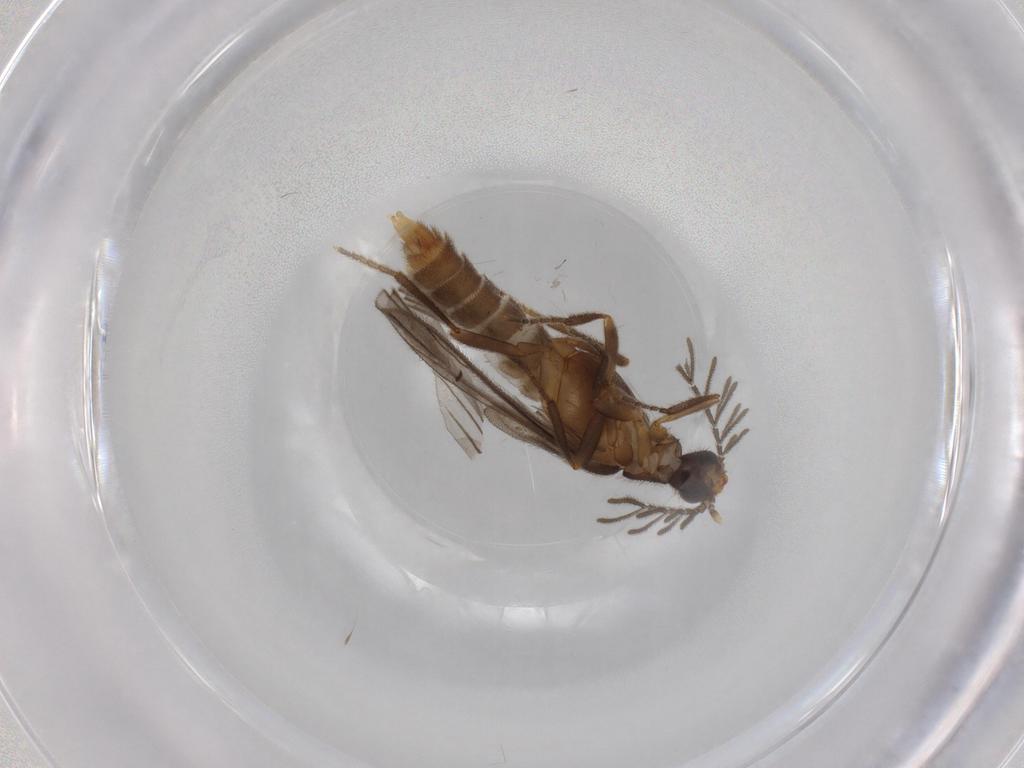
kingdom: Animalia
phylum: Arthropoda
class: Insecta
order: Coleoptera
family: Scarabaeidae
